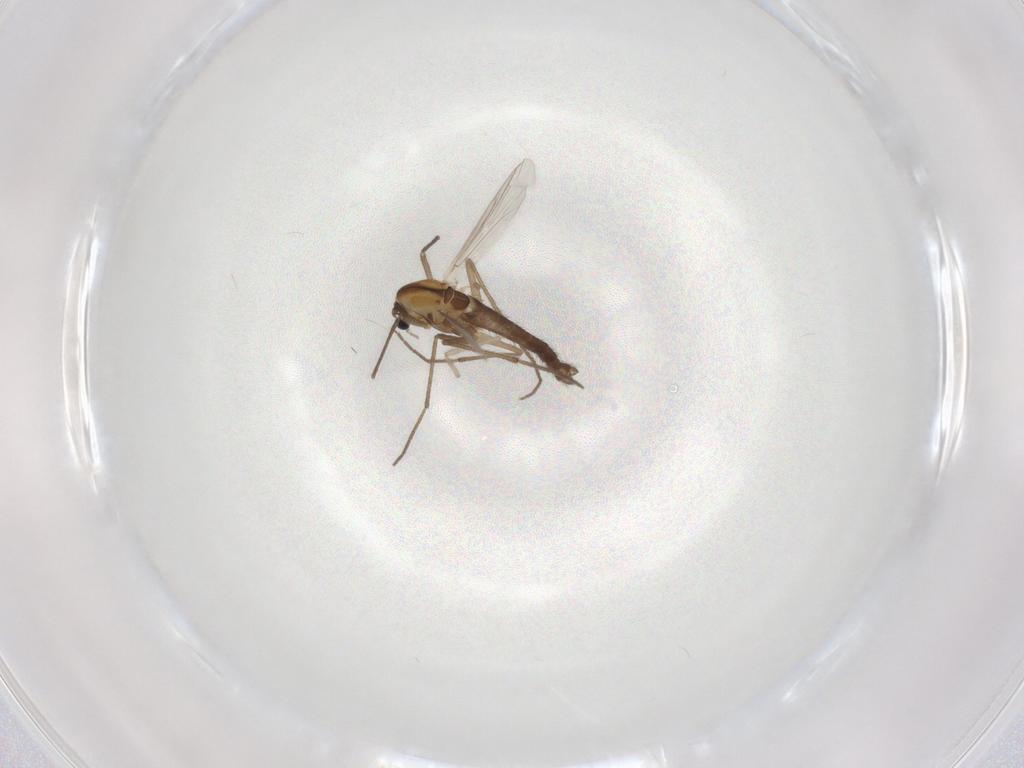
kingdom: Animalia
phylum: Arthropoda
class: Insecta
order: Diptera
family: Chironomidae
